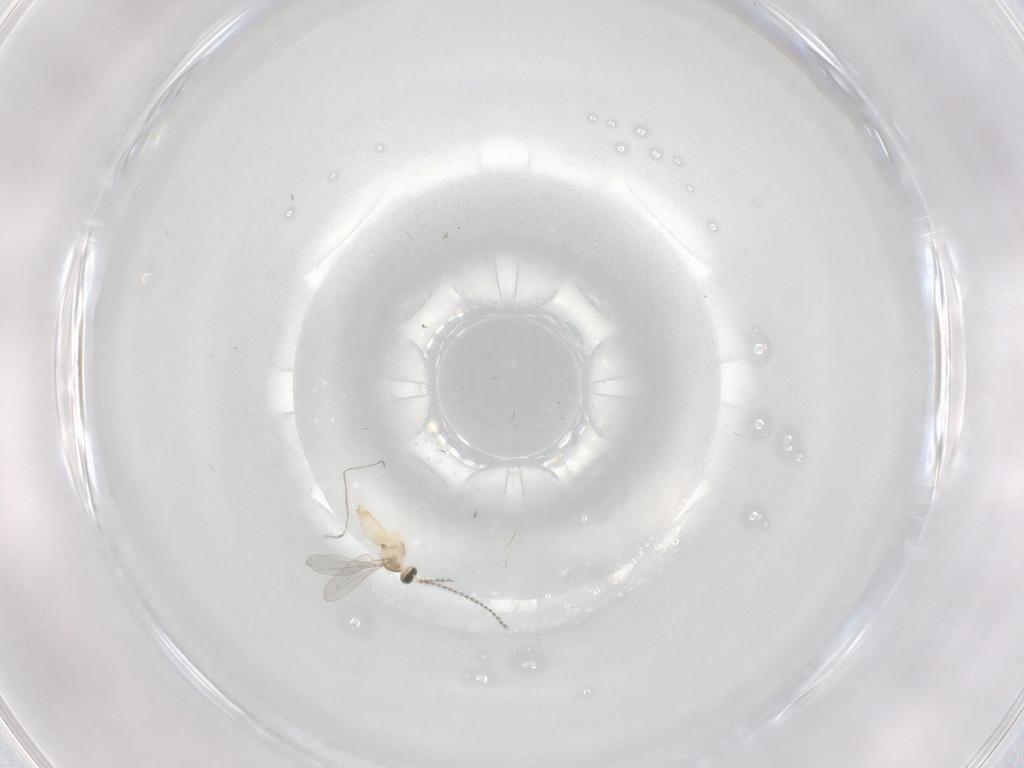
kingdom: Animalia
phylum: Arthropoda
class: Insecta
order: Diptera
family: Cecidomyiidae
